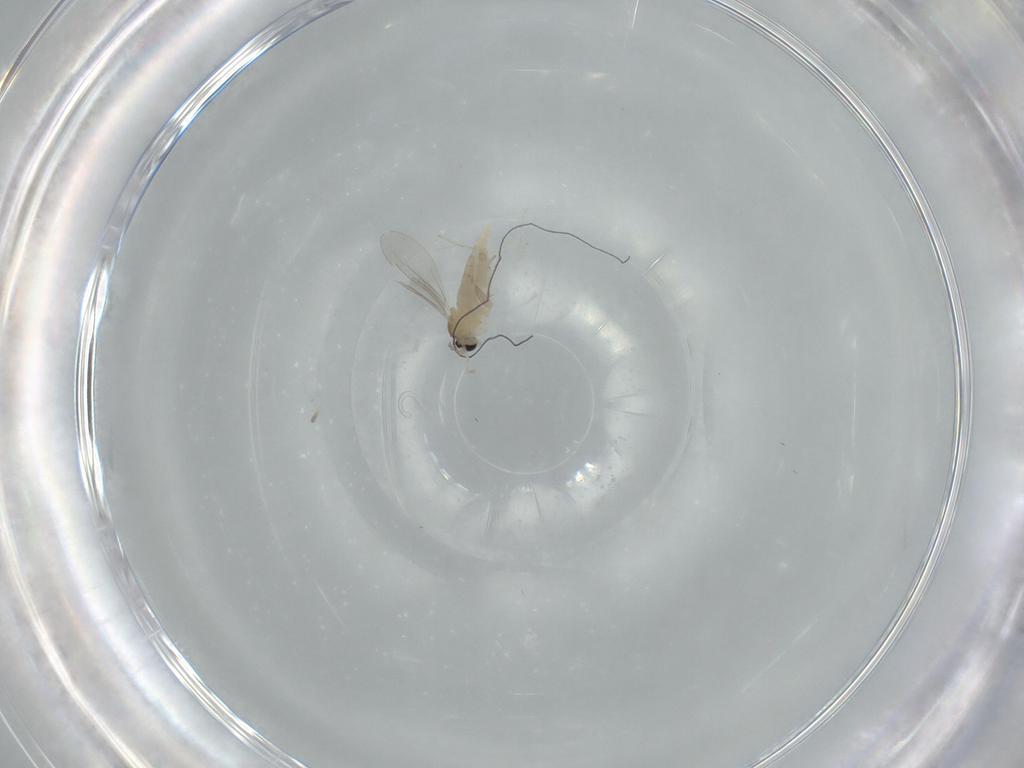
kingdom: Animalia
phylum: Arthropoda
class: Insecta
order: Diptera
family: Cecidomyiidae
